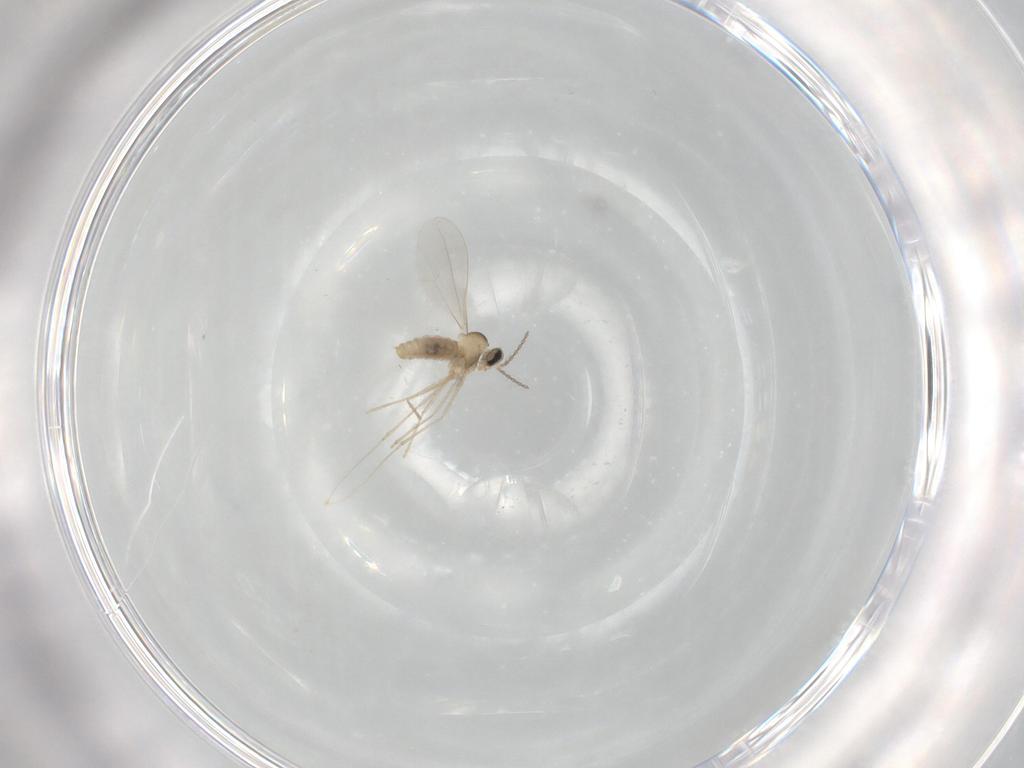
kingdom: Animalia
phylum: Arthropoda
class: Insecta
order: Diptera
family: Cecidomyiidae
